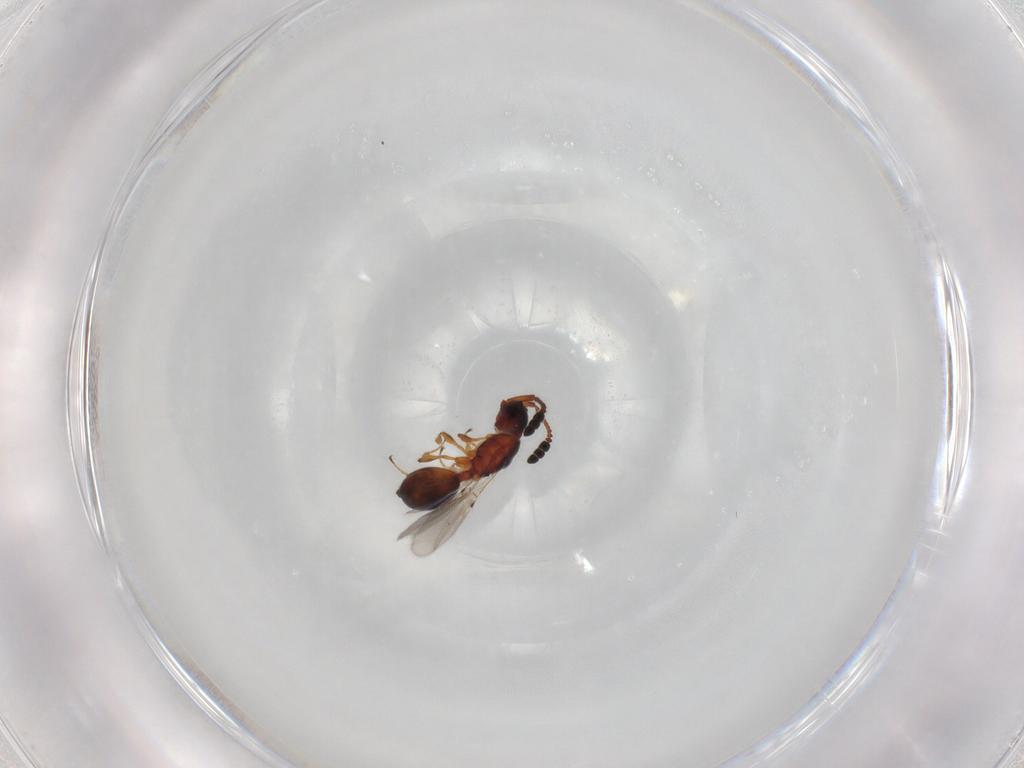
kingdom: Animalia
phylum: Arthropoda
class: Insecta
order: Hymenoptera
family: Diapriidae
